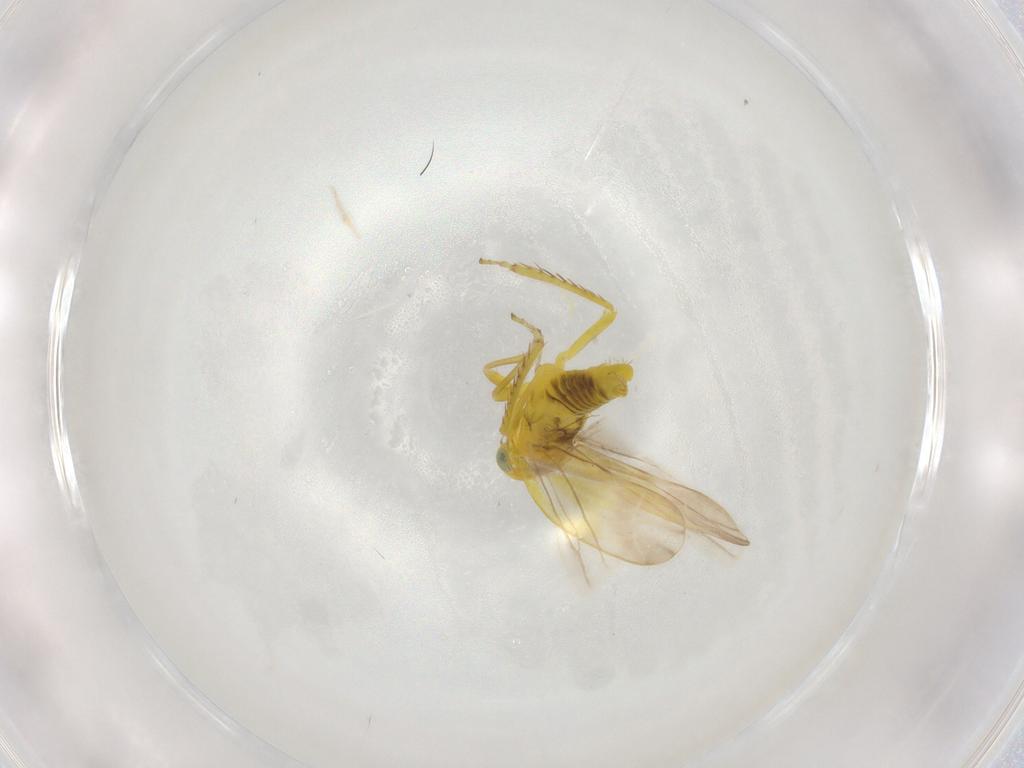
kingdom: Animalia
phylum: Arthropoda
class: Insecta
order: Hemiptera
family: Cicadellidae
